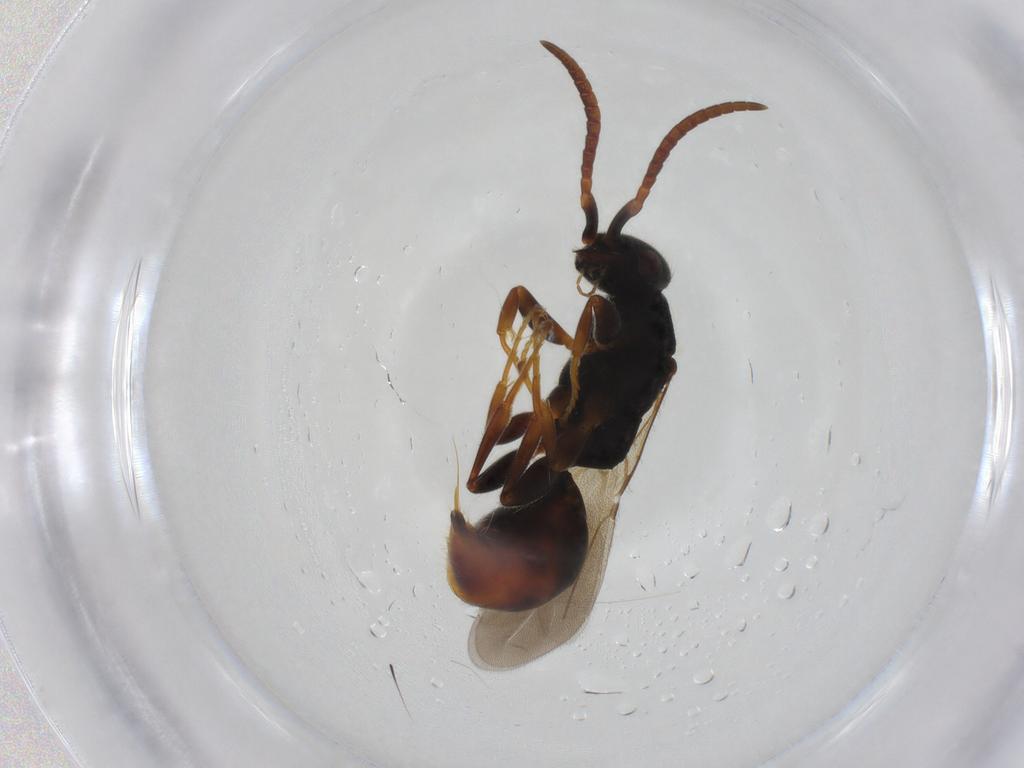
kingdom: Animalia
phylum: Arthropoda
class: Insecta
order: Hymenoptera
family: Bethylidae
